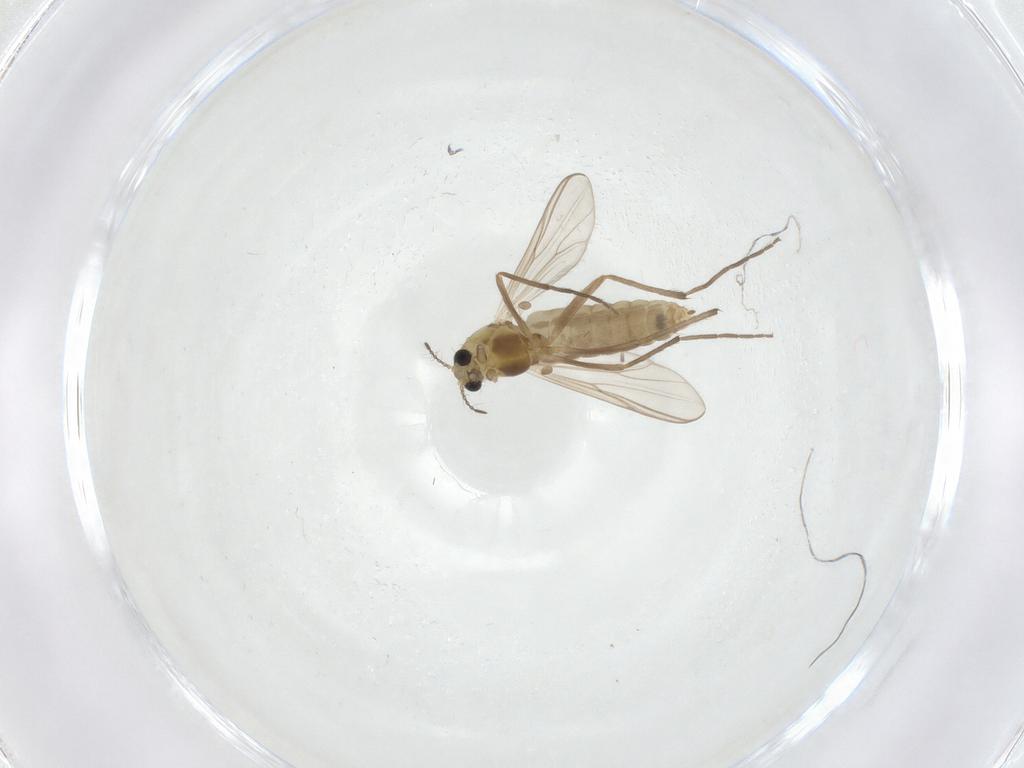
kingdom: Animalia
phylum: Arthropoda
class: Insecta
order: Diptera
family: Chironomidae
